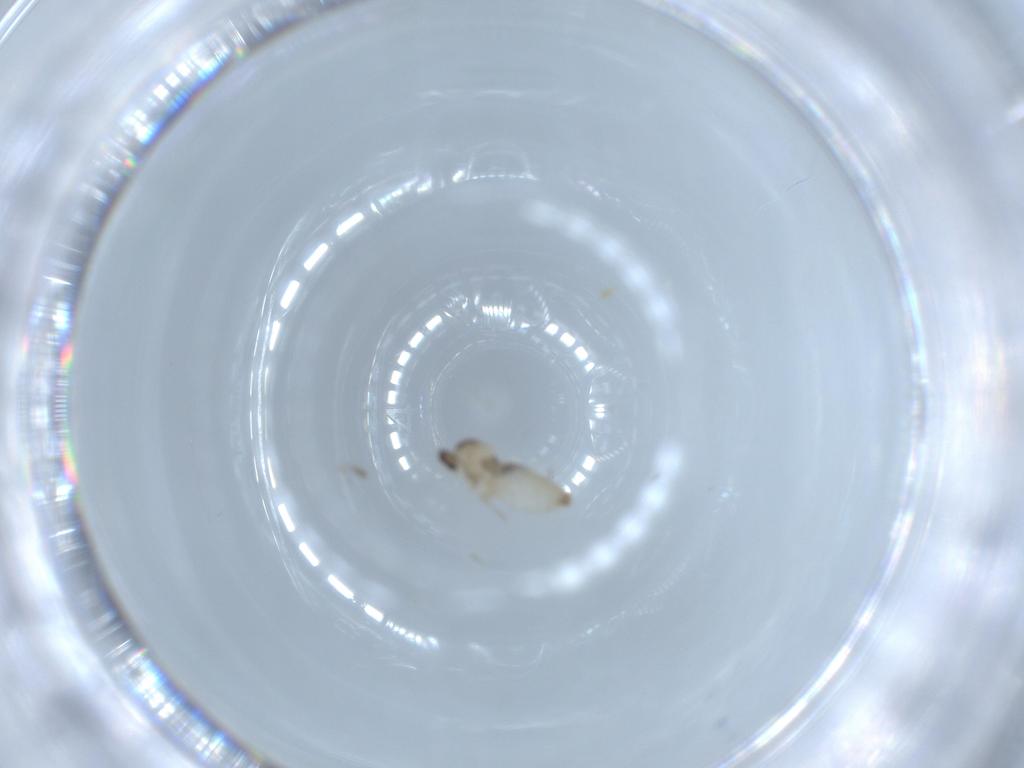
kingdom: Animalia
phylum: Arthropoda
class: Insecta
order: Diptera
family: Cecidomyiidae
